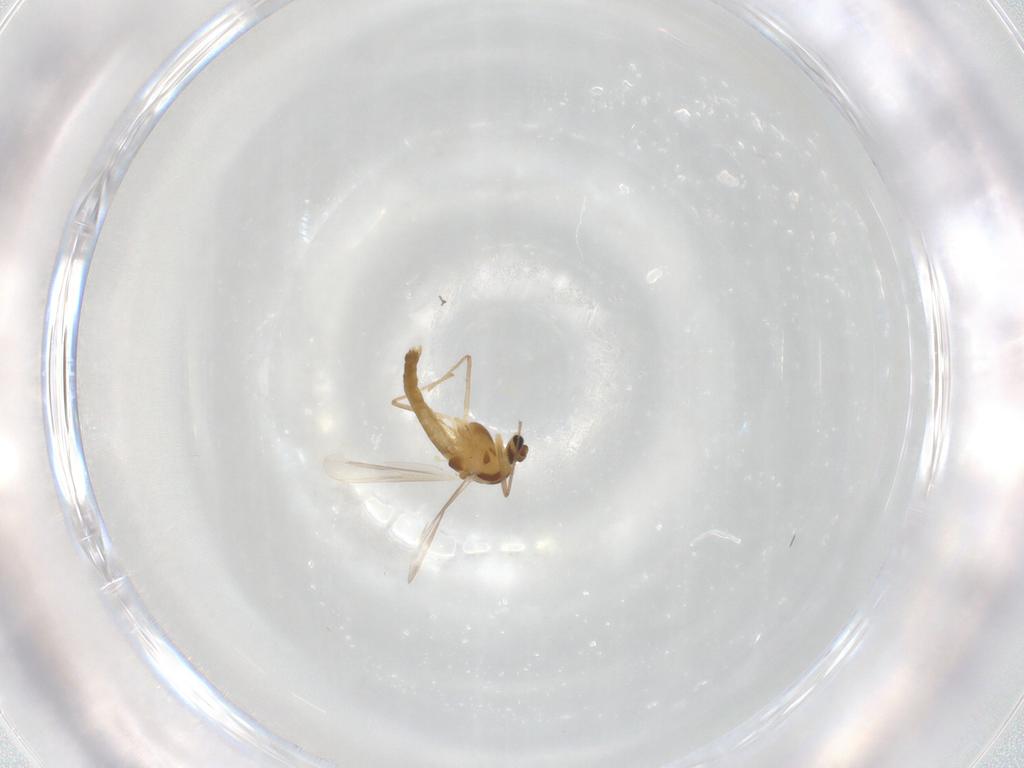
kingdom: Animalia
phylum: Arthropoda
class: Insecta
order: Diptera
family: Chironomidae
